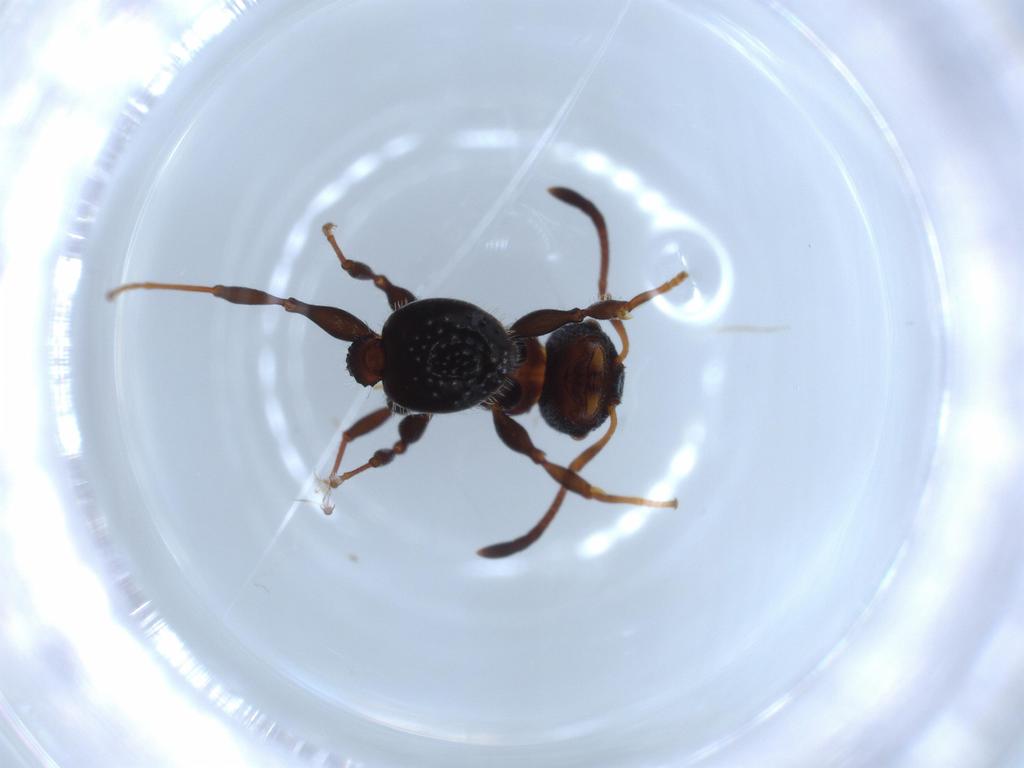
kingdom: Animalia
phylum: Arthropoda
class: Insecta
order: Hymenoptera
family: Formicidae
